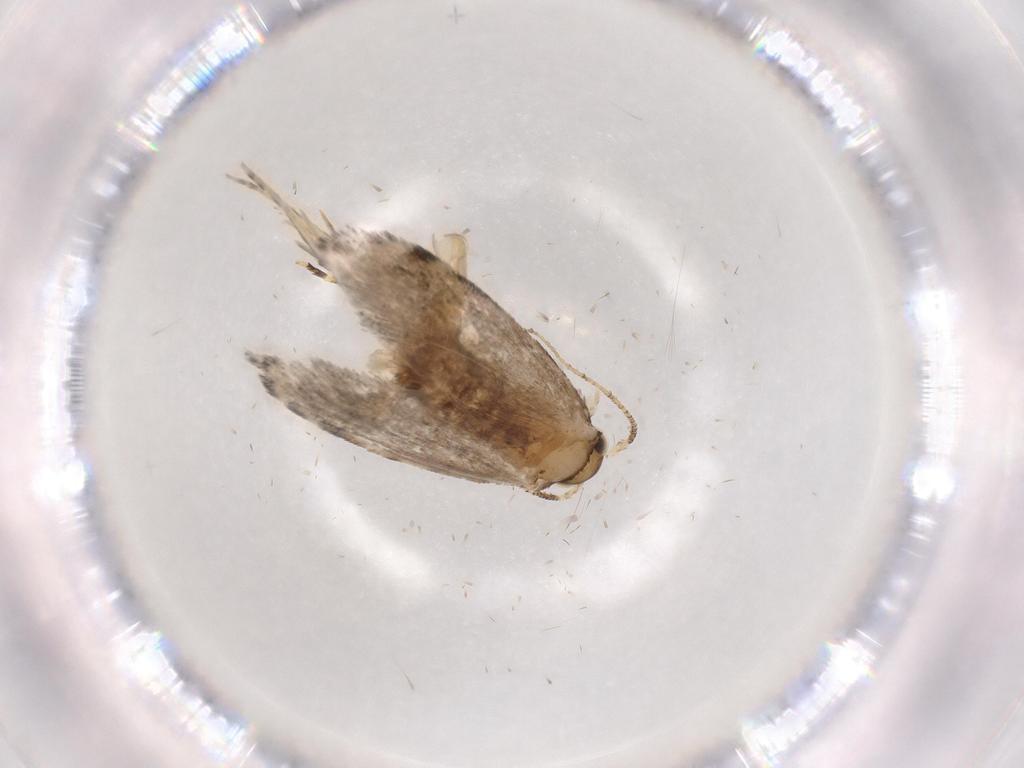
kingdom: Animalia
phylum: Arthropoda
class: Insecta
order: Lepidoptera
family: Tineidae
